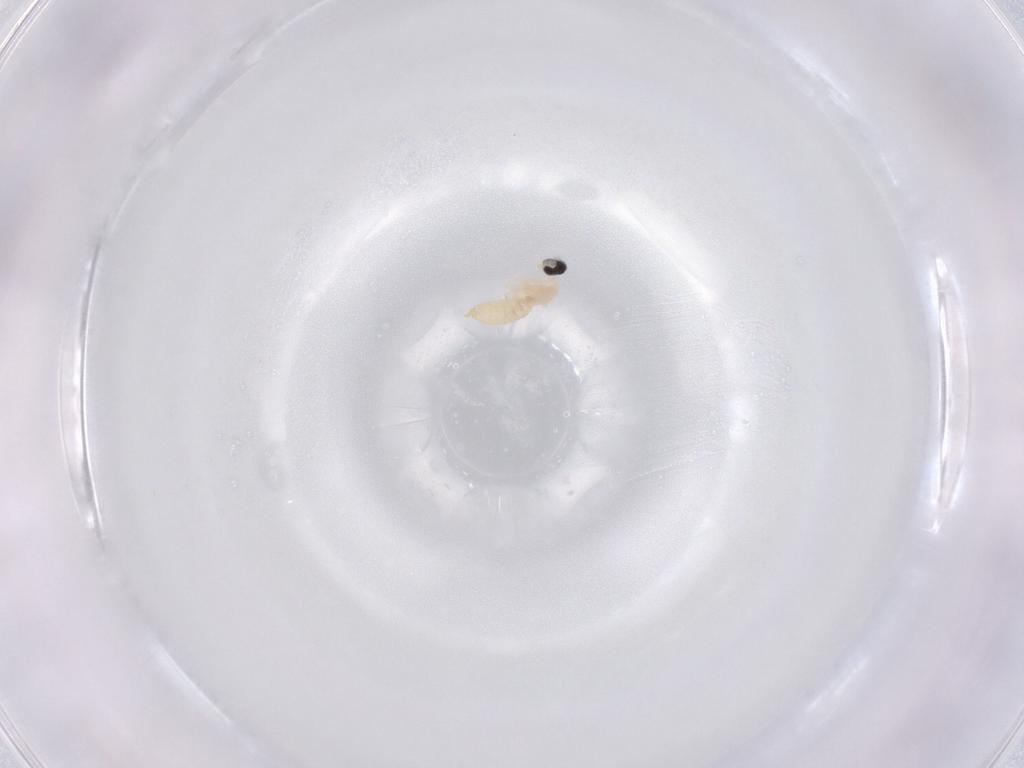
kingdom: Animalia
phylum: Arthropoda
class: Insecta
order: Diptera
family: Cecidomyiidae
